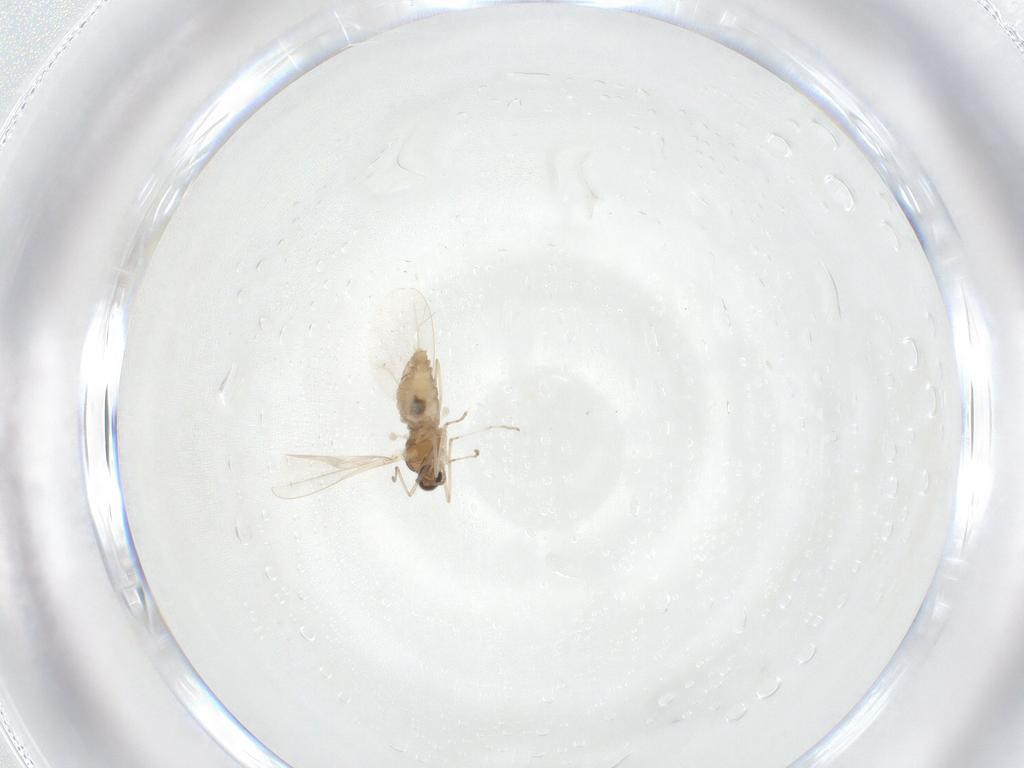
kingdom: Animalia
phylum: Arthropoda
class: Insecta
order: Diptera
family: Cecidomyiidae
